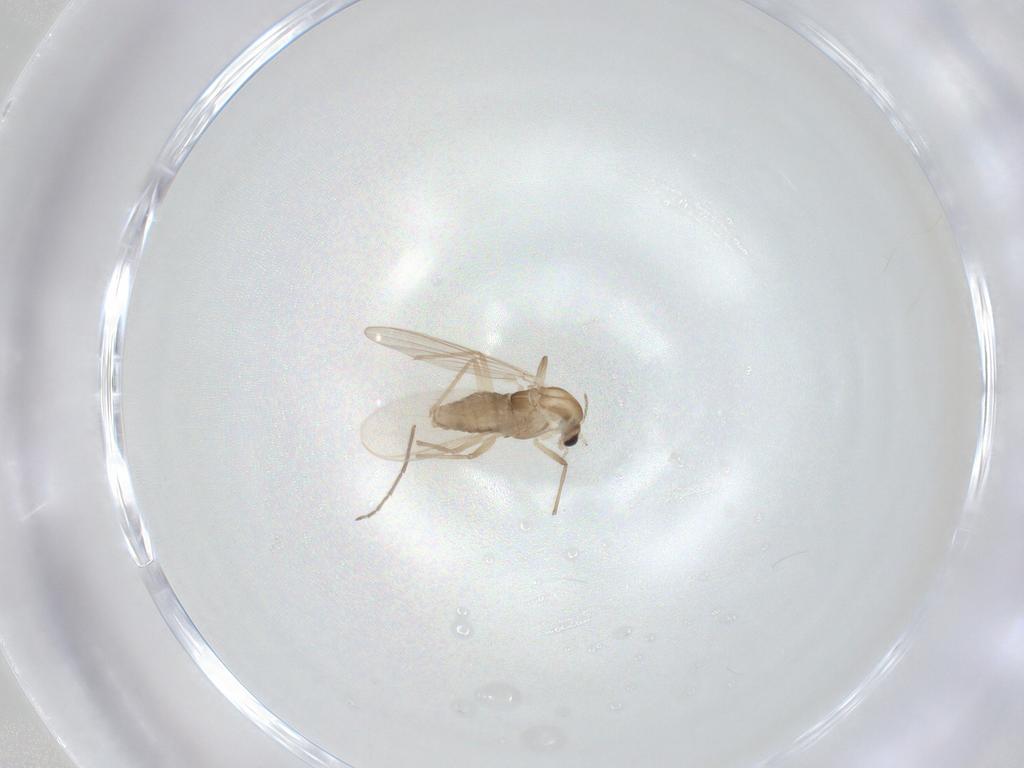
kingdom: Animalia
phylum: Arthropoda
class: Insecta
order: Diptera
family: Chironomidae
